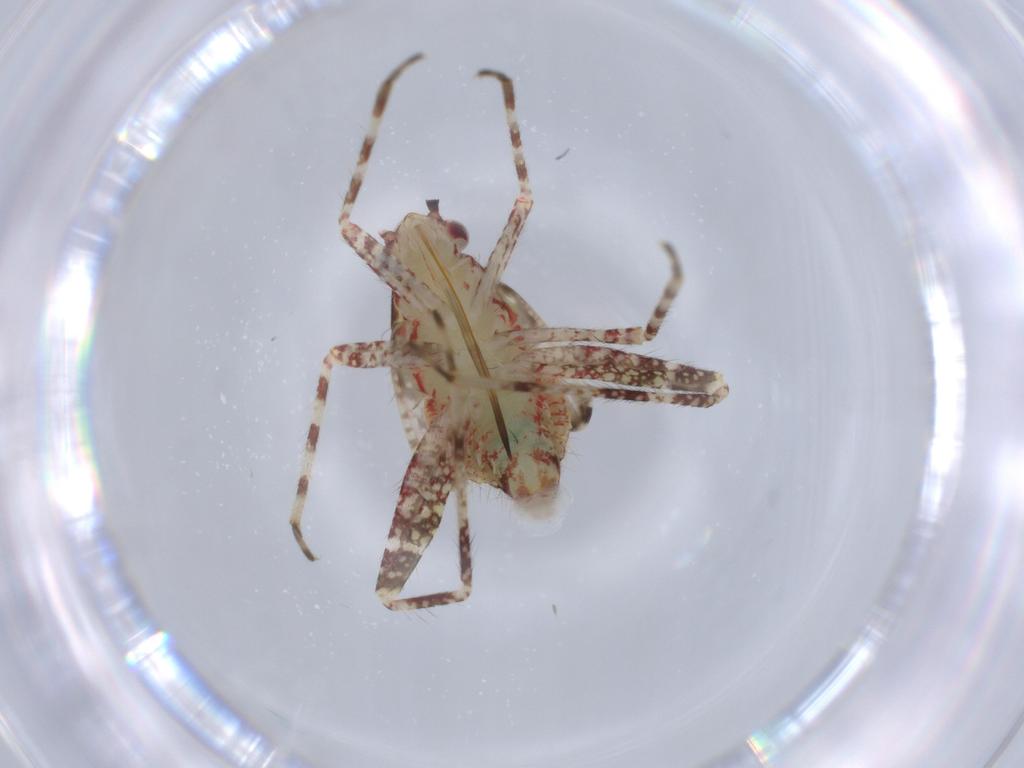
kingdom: Animalia
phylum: Arthropoda
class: Insecta
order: Hemiptera
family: Miridae
